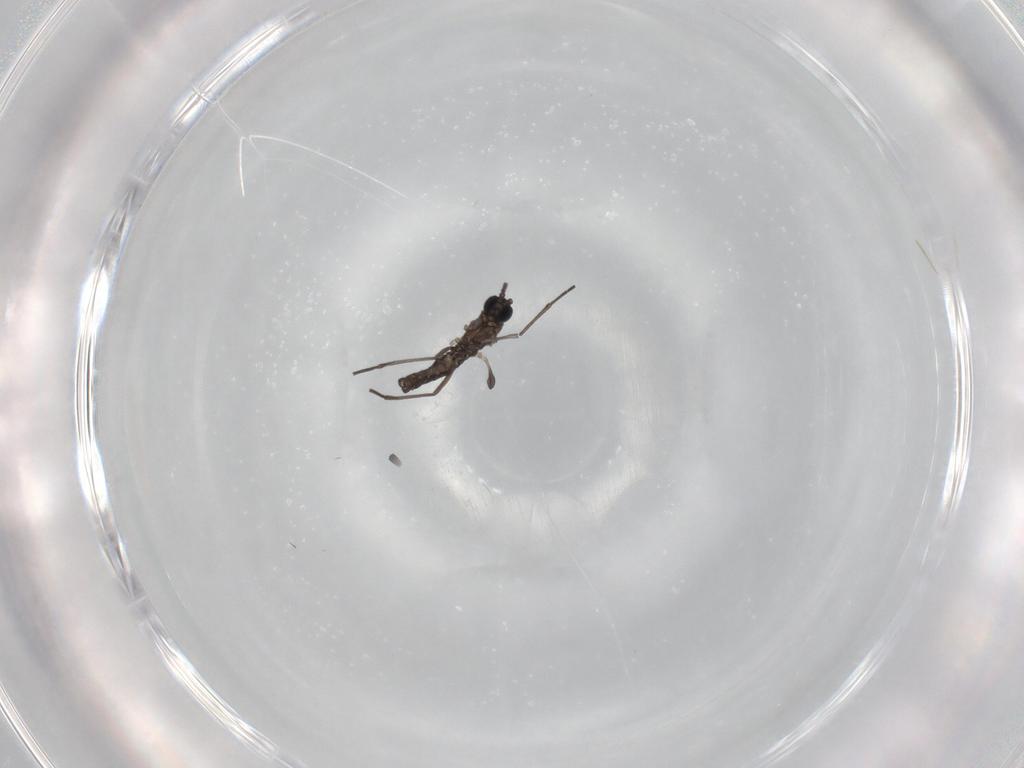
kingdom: Animalia
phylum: Arthropoda
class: Insecta
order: Diptera
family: Sciaridae
